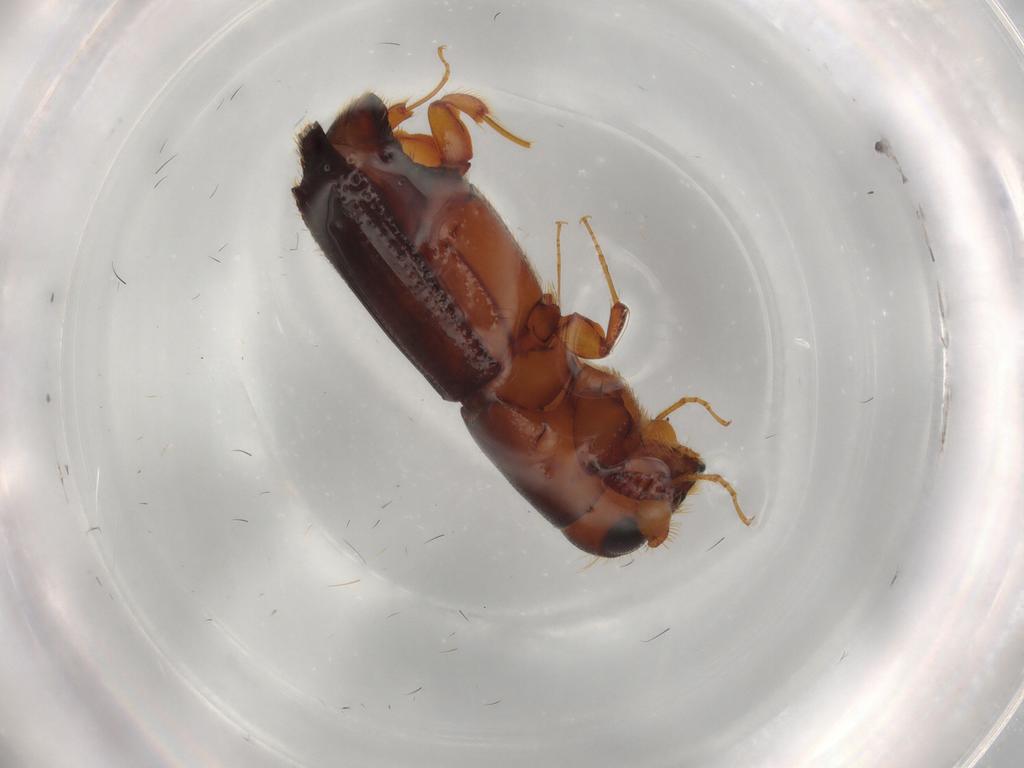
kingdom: Animalia
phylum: Arthropoda
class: Insecta
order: Coleoptera
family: Curculionidae
